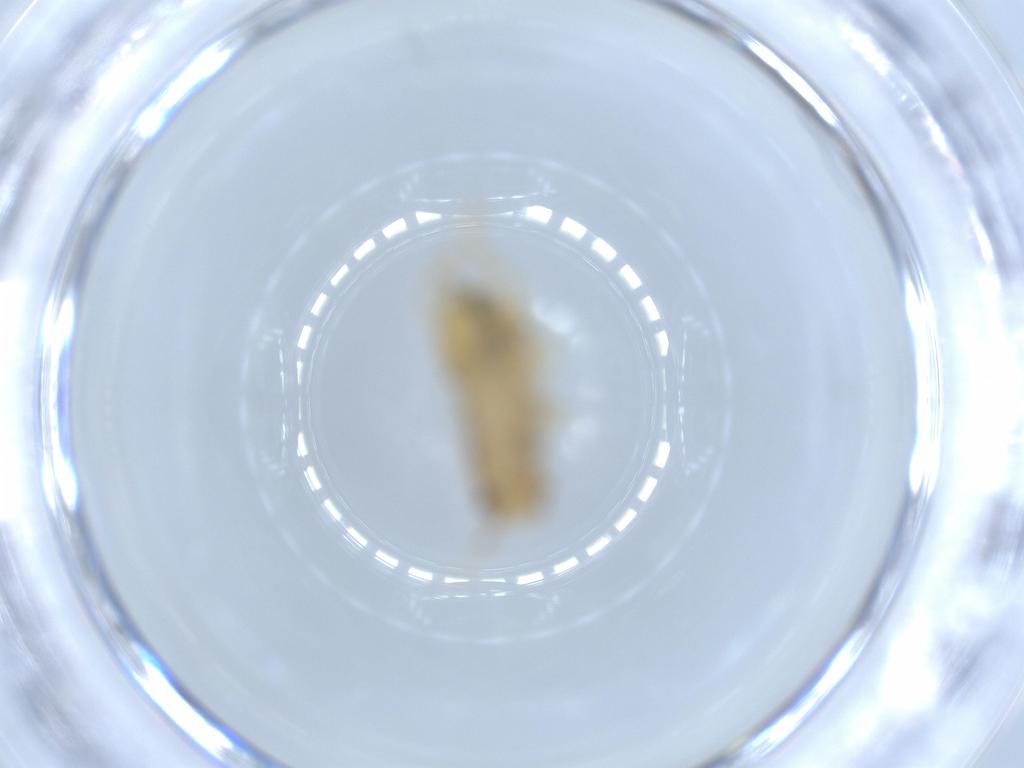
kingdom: Animalia
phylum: Arthropoda
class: Insecta
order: Blattodea
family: Ectobiidae
